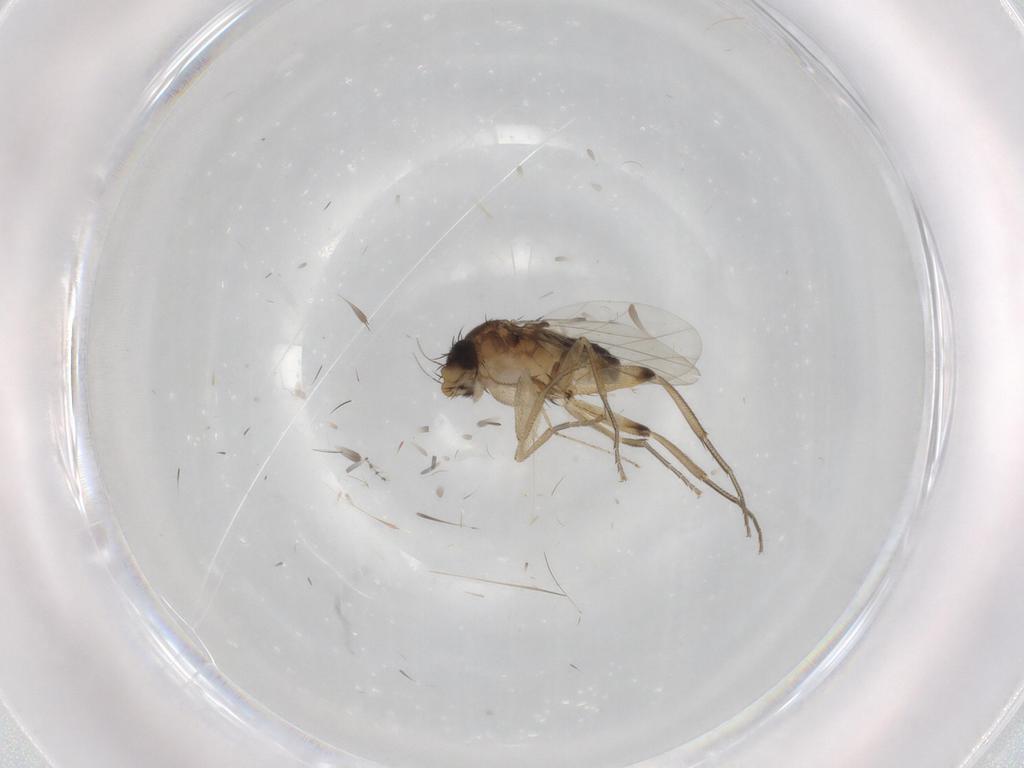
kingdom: Animalia
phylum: Arthropoda
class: Insecta
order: Diptera
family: Phoridae
